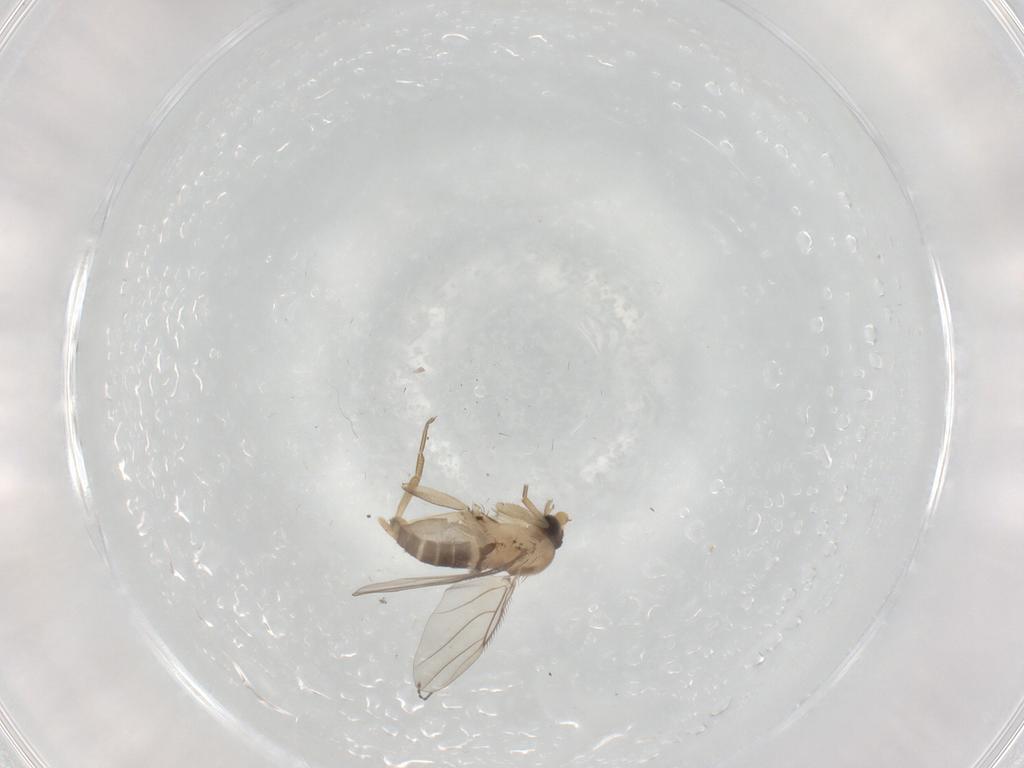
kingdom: Animalia
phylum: Arthropoda
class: Insecta
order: Diptera
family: Phoridae
